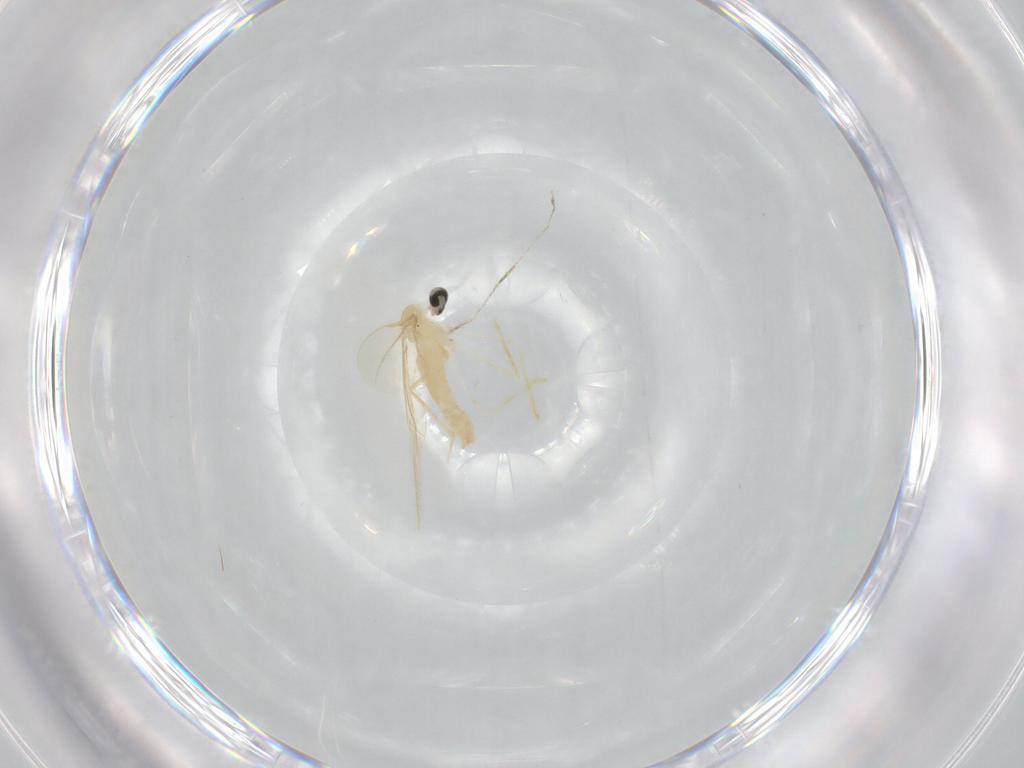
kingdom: Animalia
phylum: Arthropoda
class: Insecta
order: Diptera
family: Cecidomyiidae
